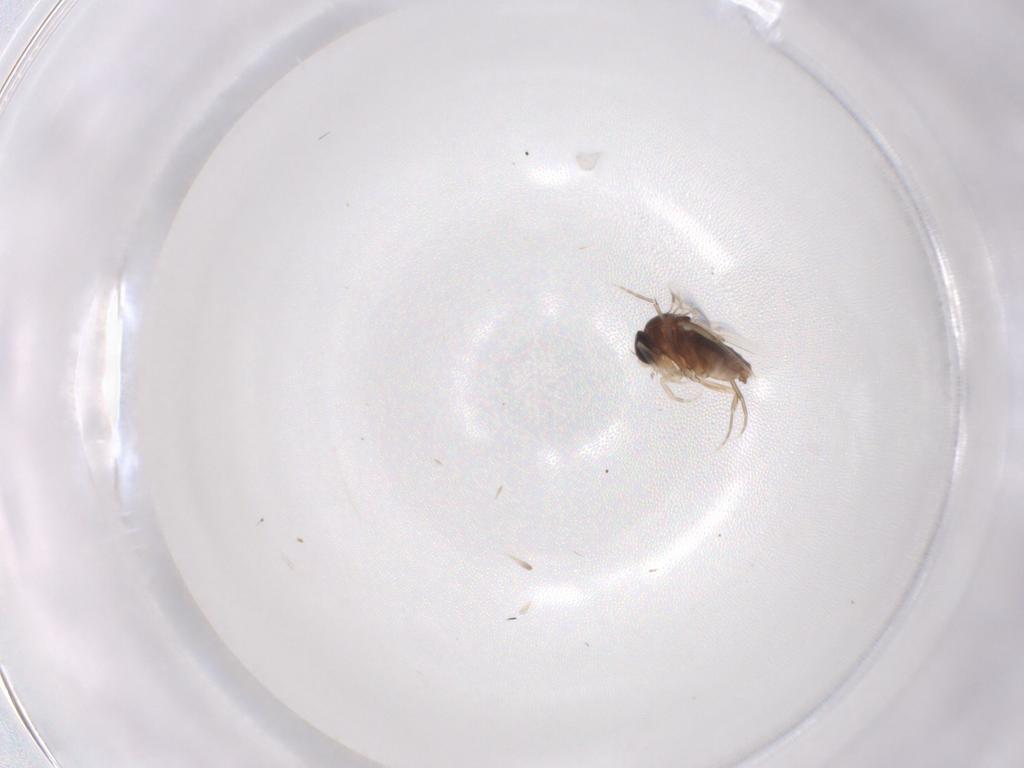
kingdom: Animalia
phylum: Arthropoda
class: Insecta
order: Diptera
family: Phoridae
